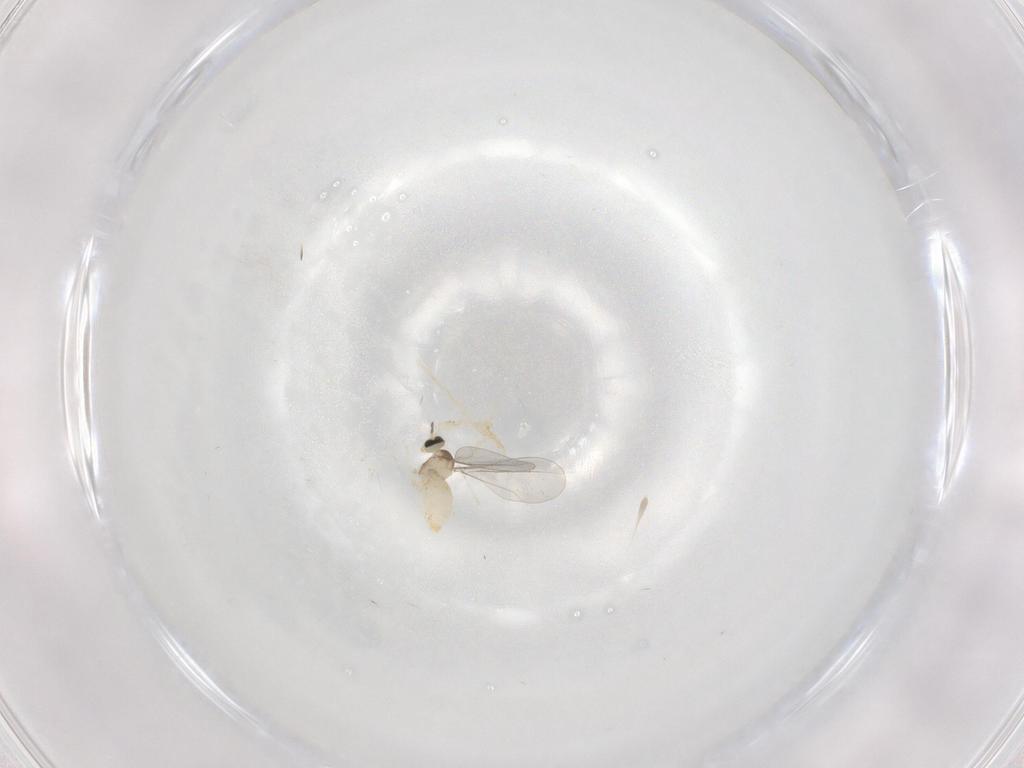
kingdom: Animalia
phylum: Arthropoda
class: Insecta
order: Diptera
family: Cecidomyiidae
